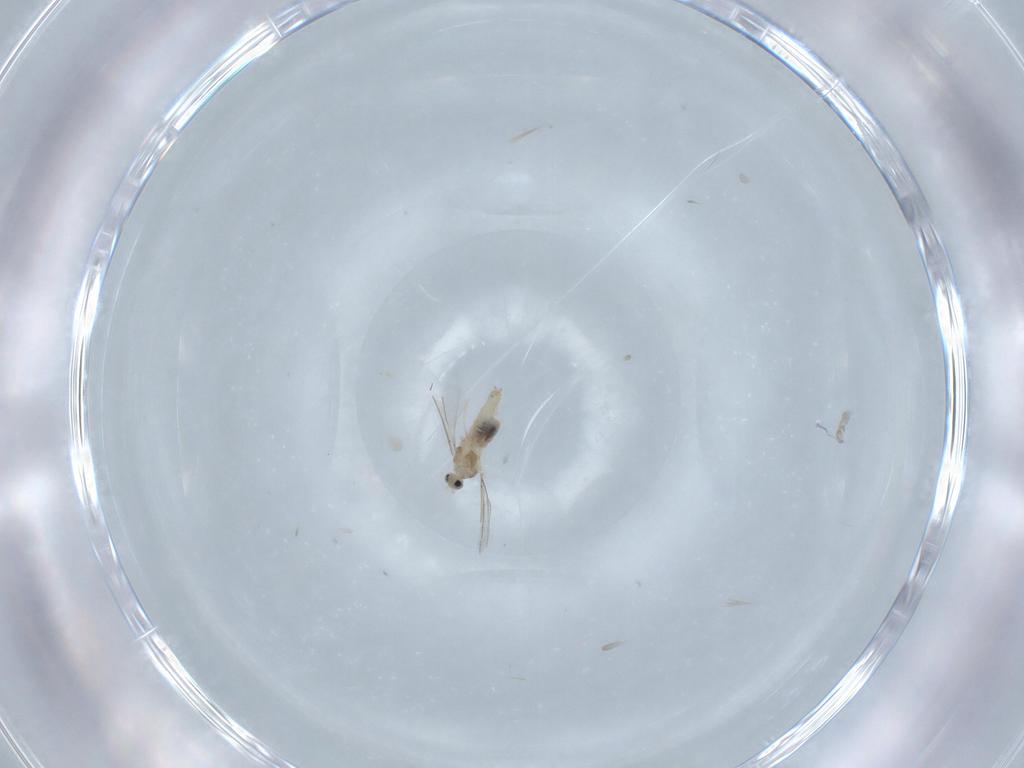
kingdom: Animalia
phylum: Arthropoda
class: Insecta
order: Diptera
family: Cecidomyiidae
